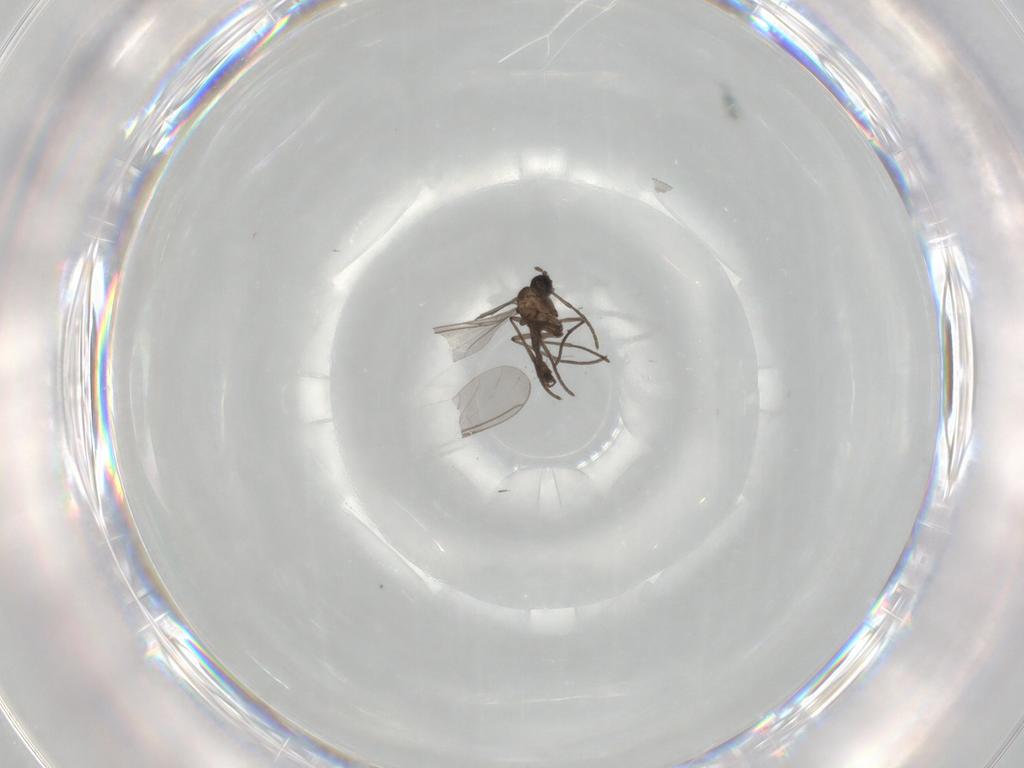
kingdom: Animalia
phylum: Arthropoda
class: Insecta
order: Diptera
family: Sciaridae
